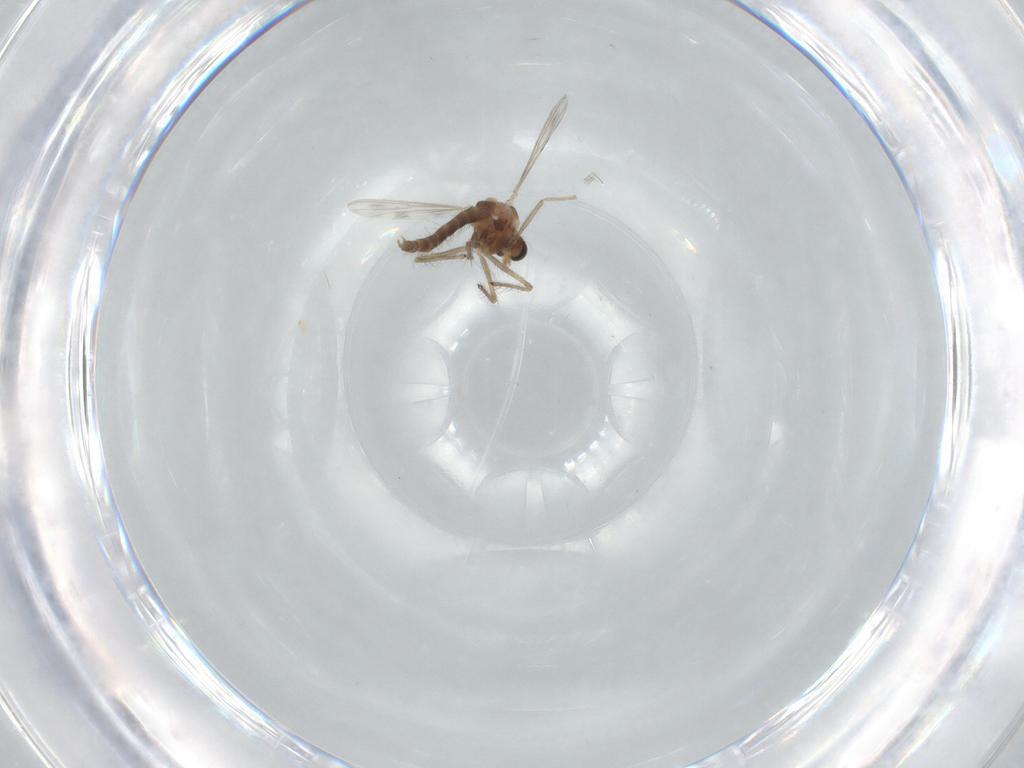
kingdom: Animalia
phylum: Arthropoda
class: Insecta
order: Diptera
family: Chironomidae
